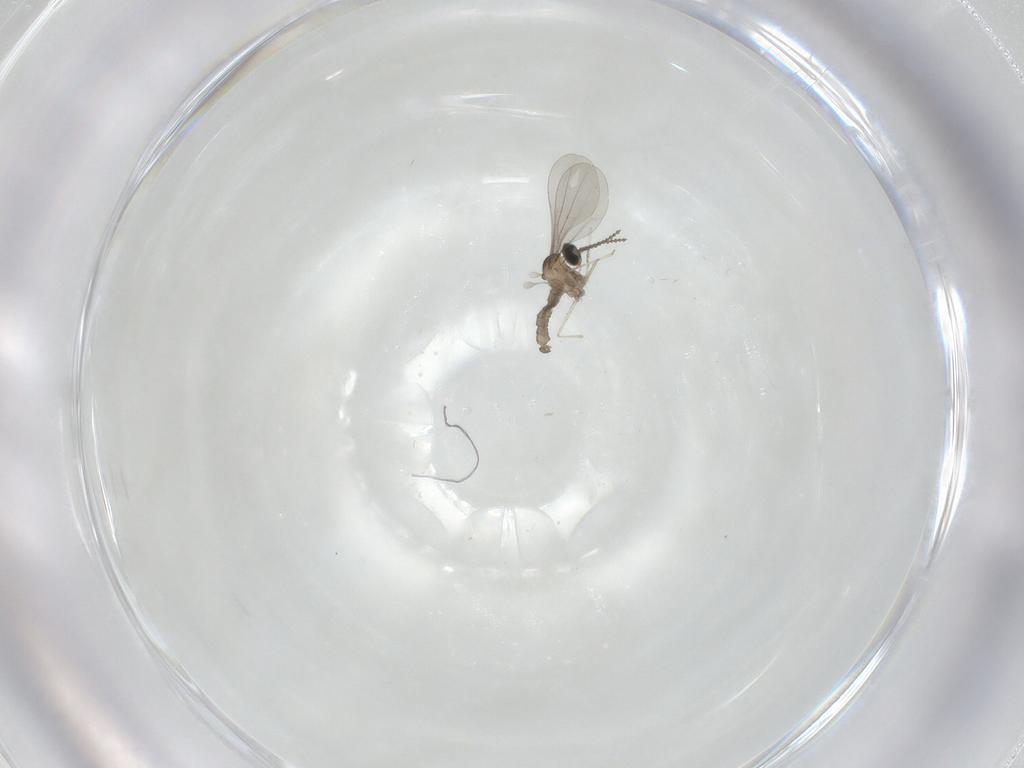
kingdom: Animalia
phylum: Arthropoda
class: Insecta
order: Diptera
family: Cecidomyiidae
